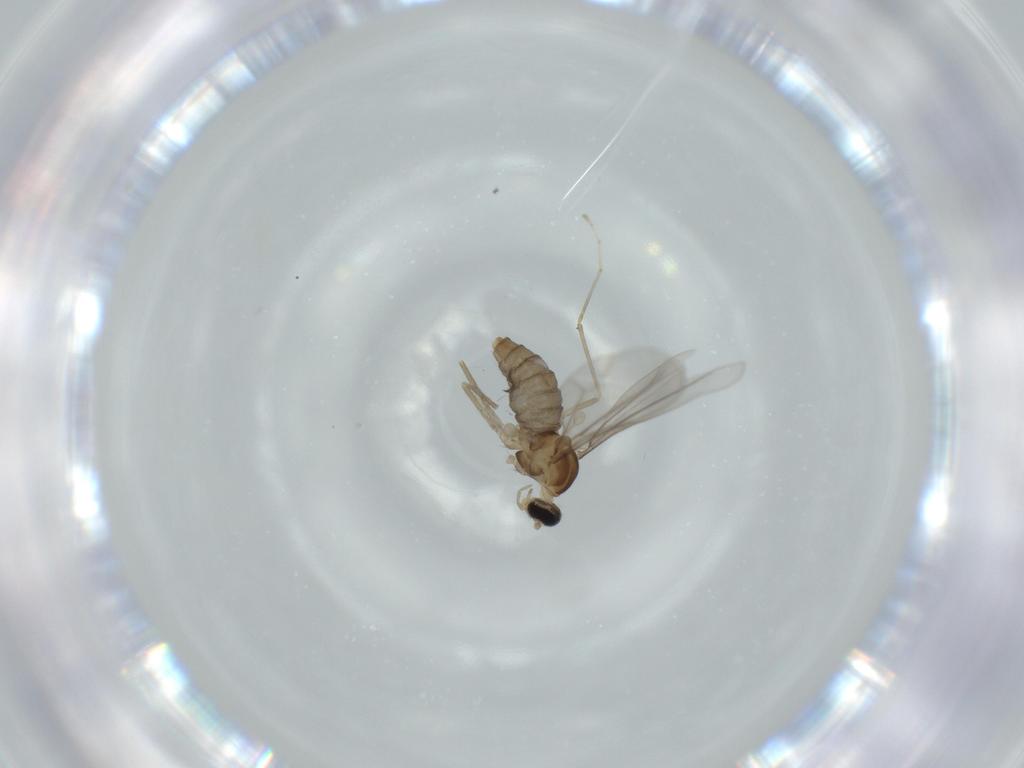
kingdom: Animalia
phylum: Arthropoda
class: Insecta
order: Diptera
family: Cecidomyiidae
